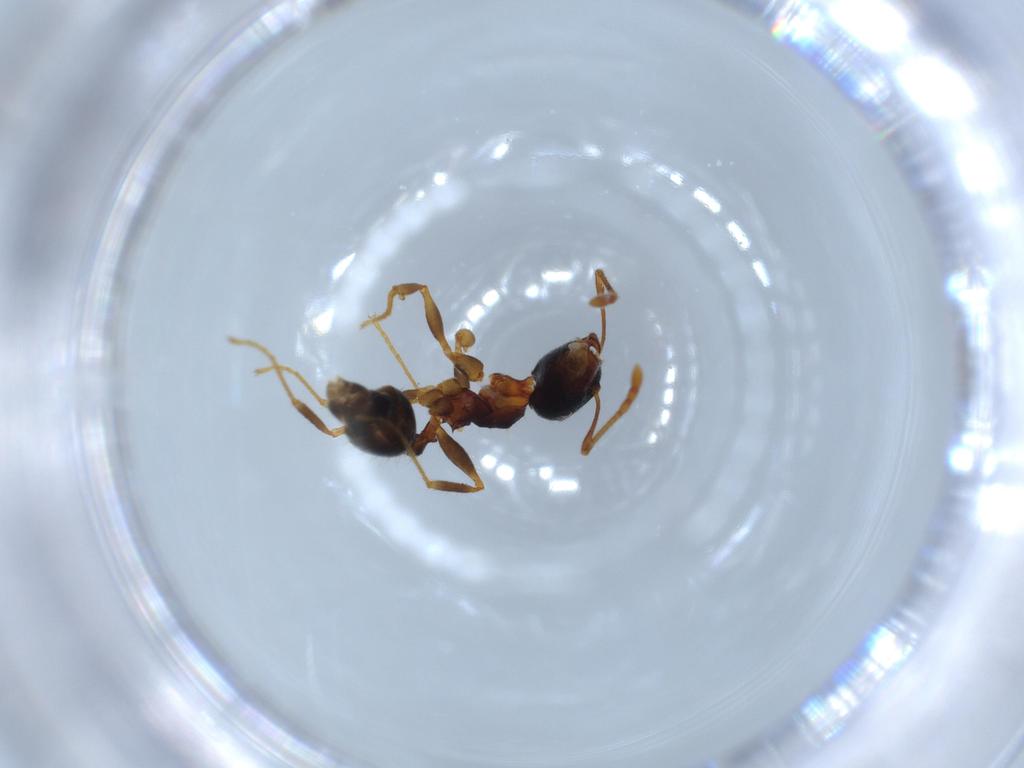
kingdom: Animalia
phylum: Arthropoda
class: Insecta
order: Hymenoptera
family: Formicidae
